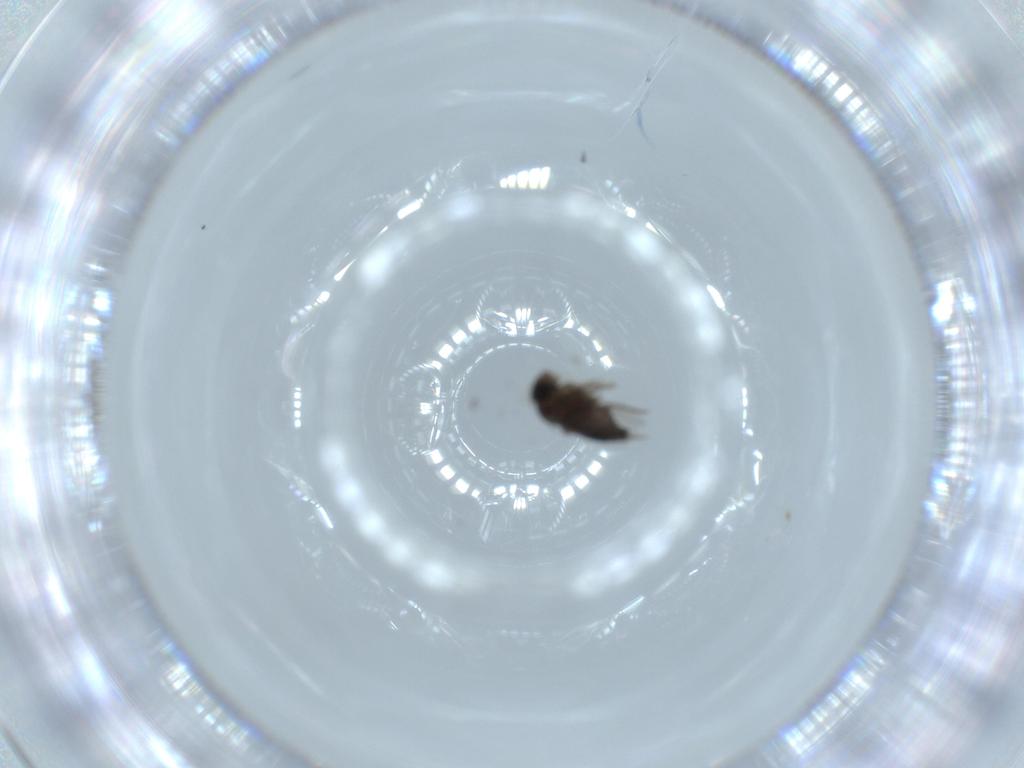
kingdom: Animalia
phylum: Arthropoda
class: Insecta
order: Diptera
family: Phoridae
